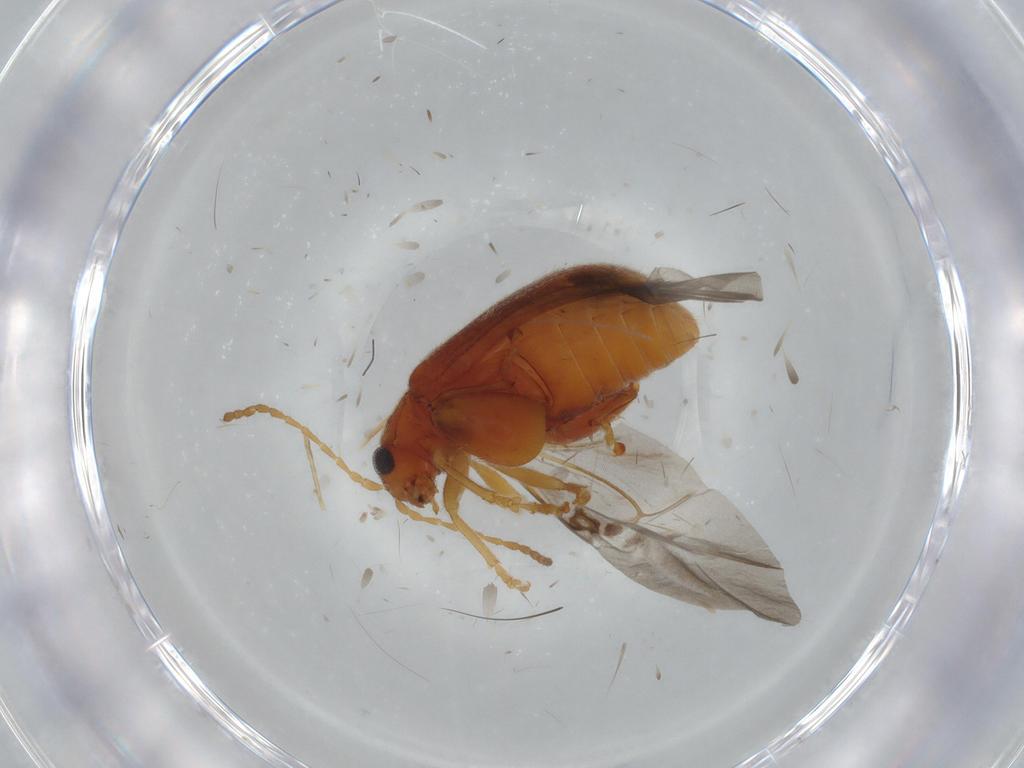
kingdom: Animalia
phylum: Arthropoda
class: Insecta
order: Coleoptera
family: Chrysomelidae
